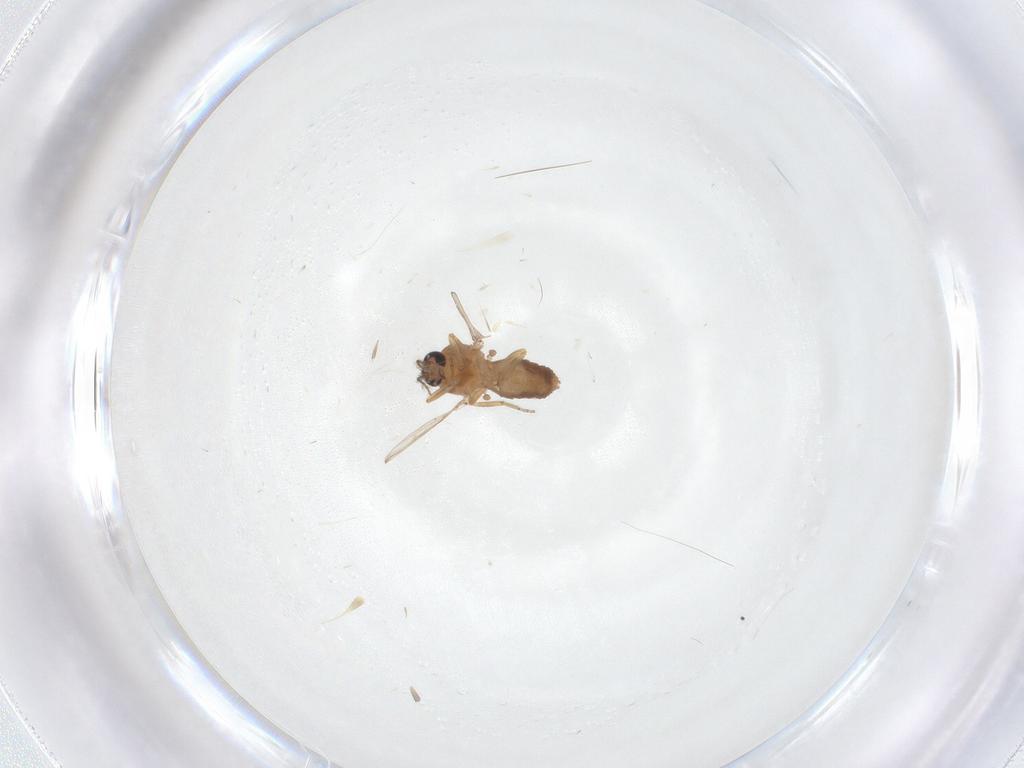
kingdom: Animalia
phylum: Arthropoda
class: Insecta
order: Diptera
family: Ceratopogonidae
